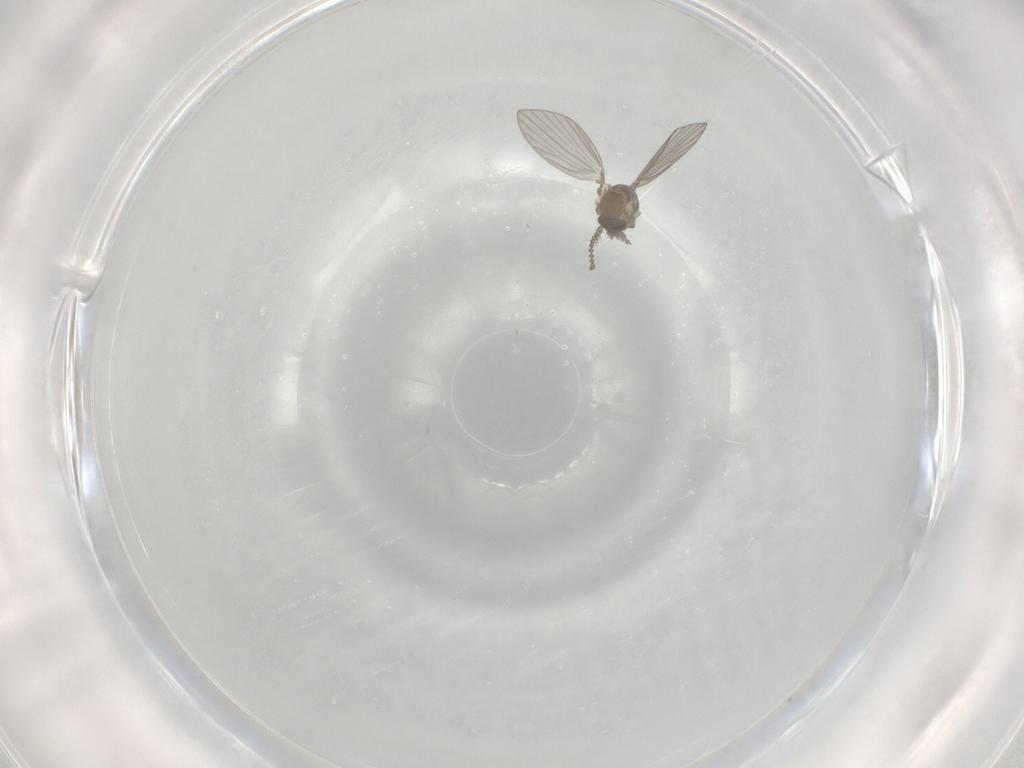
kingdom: Animalia
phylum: Arthropoda
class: Insecta
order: Diptera
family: Psychodidae
